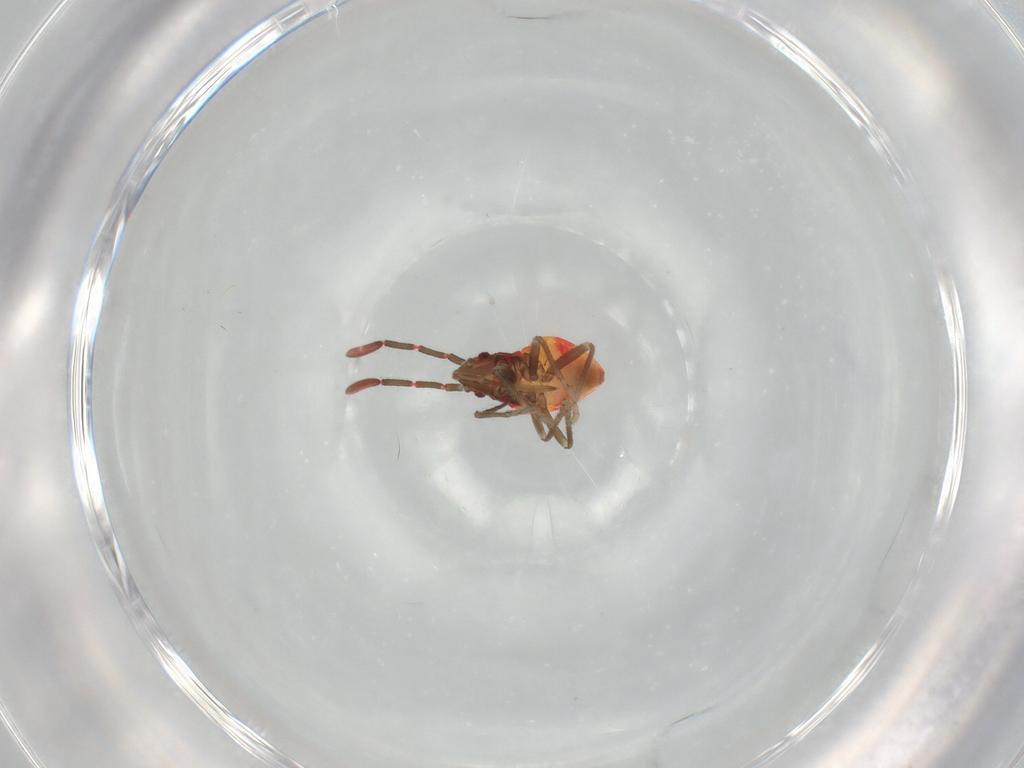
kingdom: Animalia
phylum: Arthropoda
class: Insecta
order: Hemiptera
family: Rhyparochromidae
